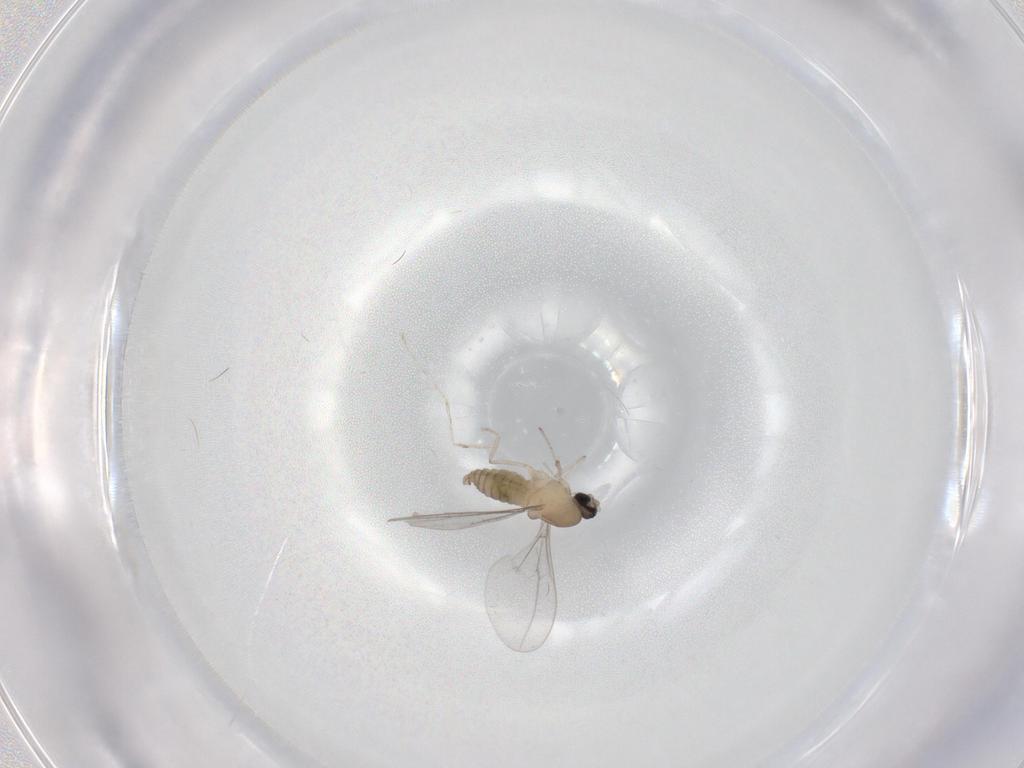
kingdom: Animalia
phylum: Arthropoda
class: Insecta
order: Diptera
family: Cecidomyiidae
